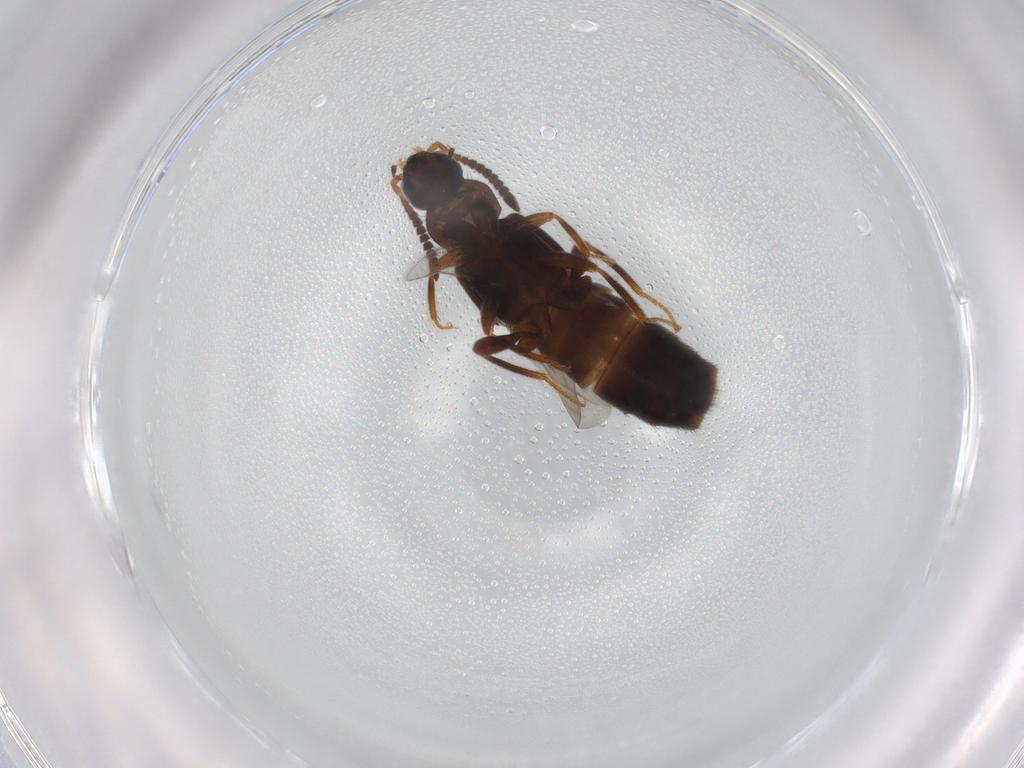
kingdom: Animalia
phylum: Arthropoda
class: Insecta
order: Coleoptera
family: Staphylinidae
